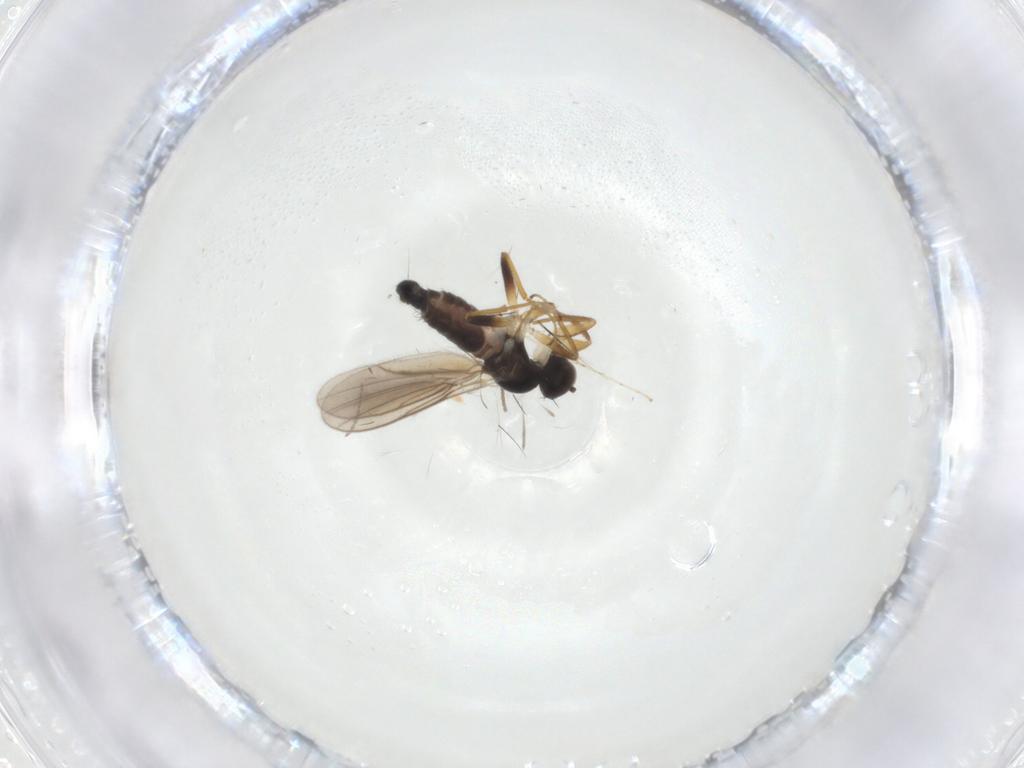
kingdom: Animalia
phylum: Arthropoda
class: Insecta
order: Diptera
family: Hybotidae
